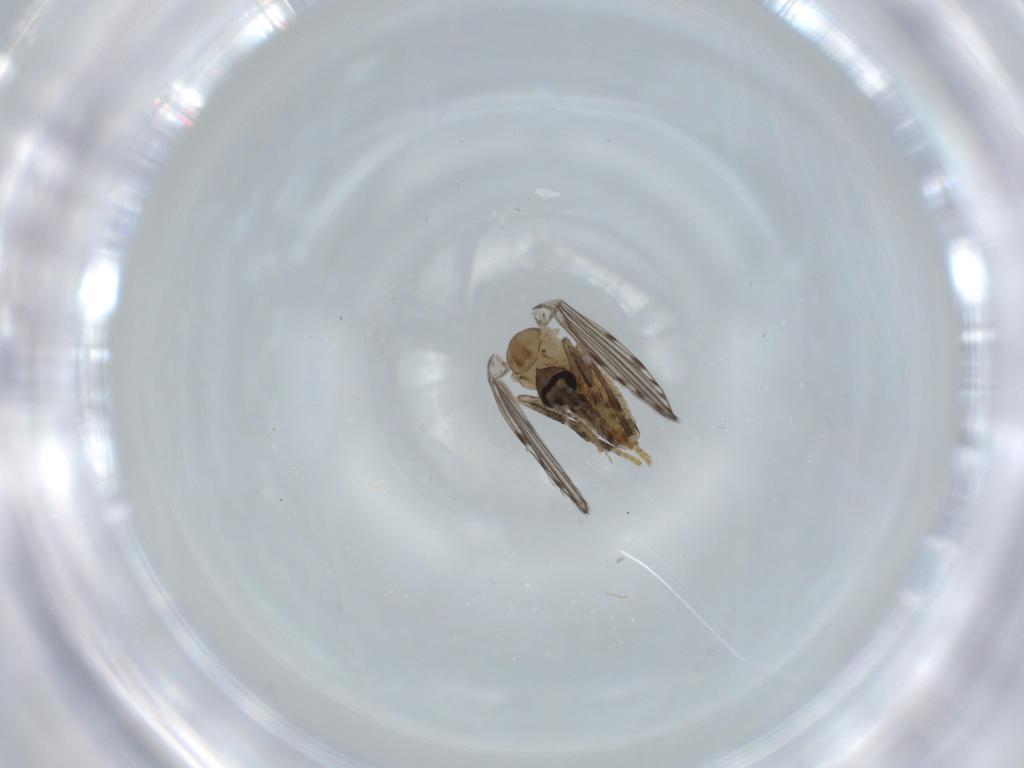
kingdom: Animalia
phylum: Arthropoda
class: Insecta
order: Diptera
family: Psychodidae
